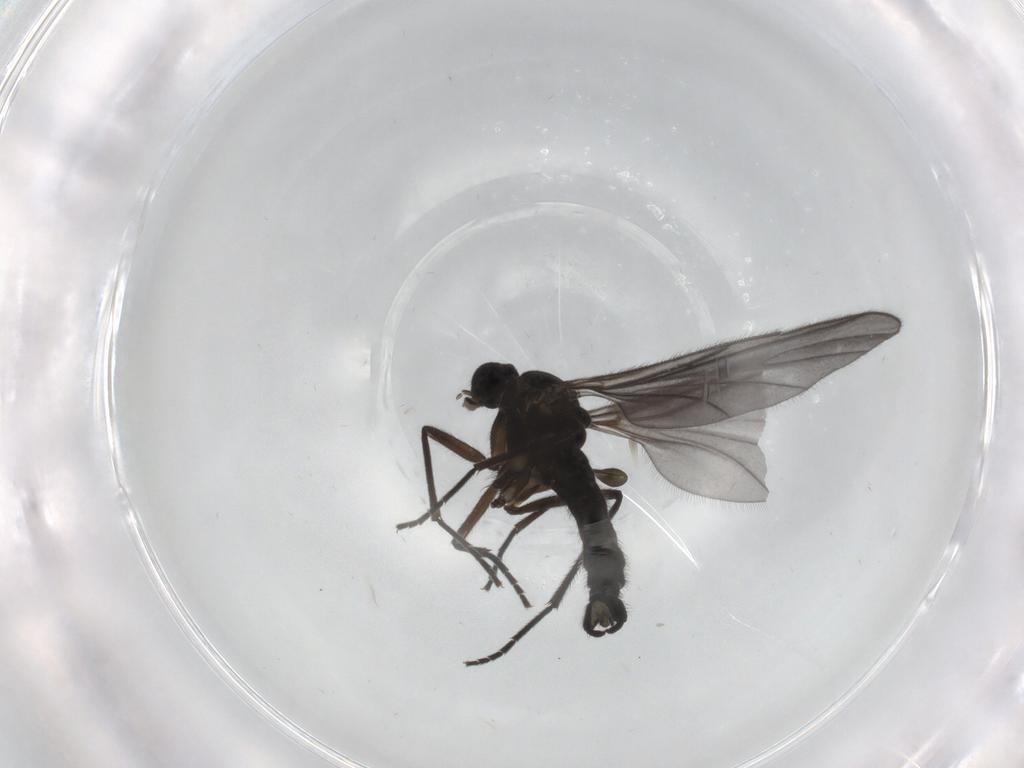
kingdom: Animalia
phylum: Arthropoda
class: Insecta
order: Diptera
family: Sciaridae
